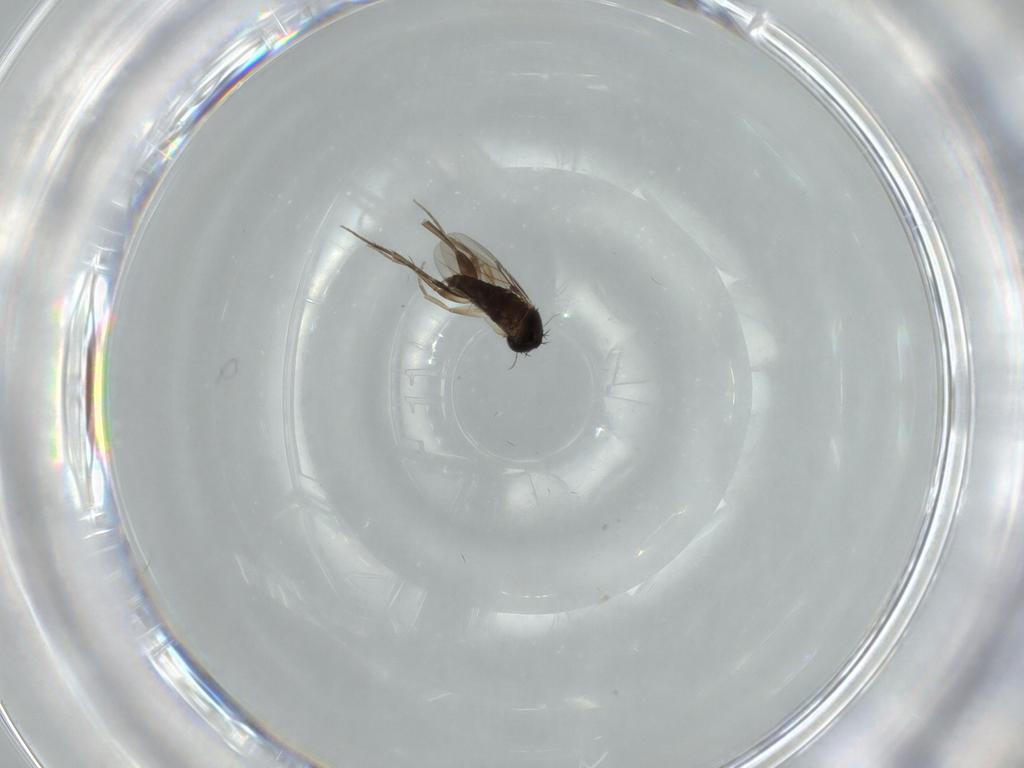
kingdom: Animalia
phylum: Arthropoda
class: Insecta
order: Diptera
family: Phoridae
